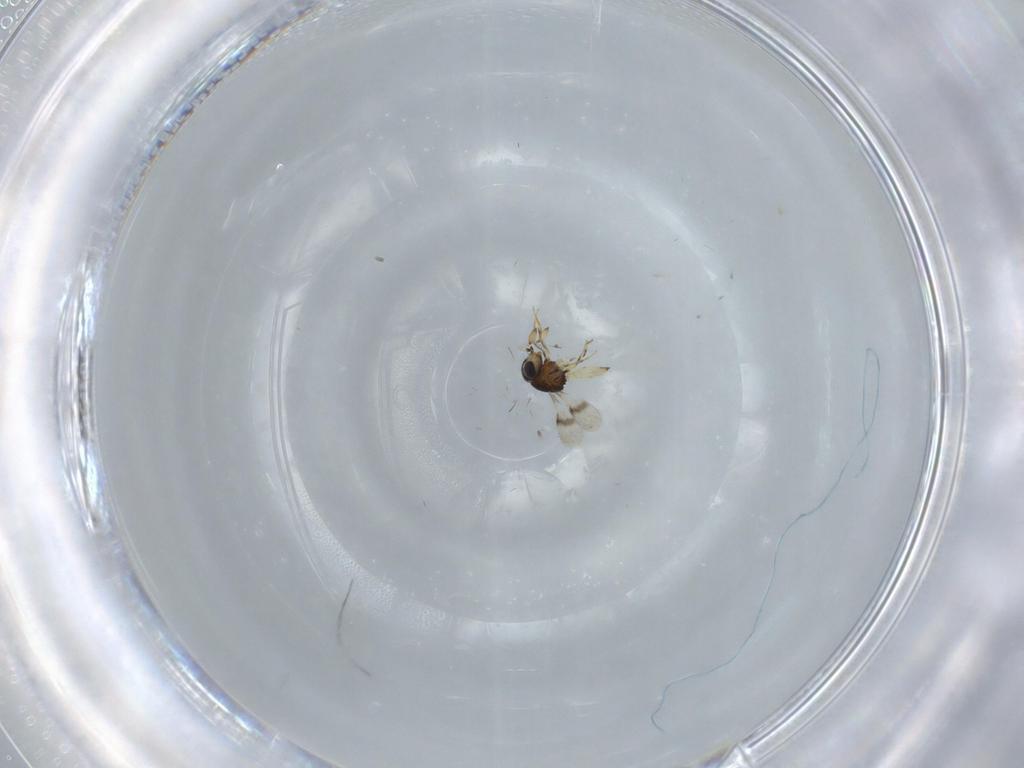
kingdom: Animalia
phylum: Arthropoda
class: Insecta
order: Hymenoptera
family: Scelionidae
